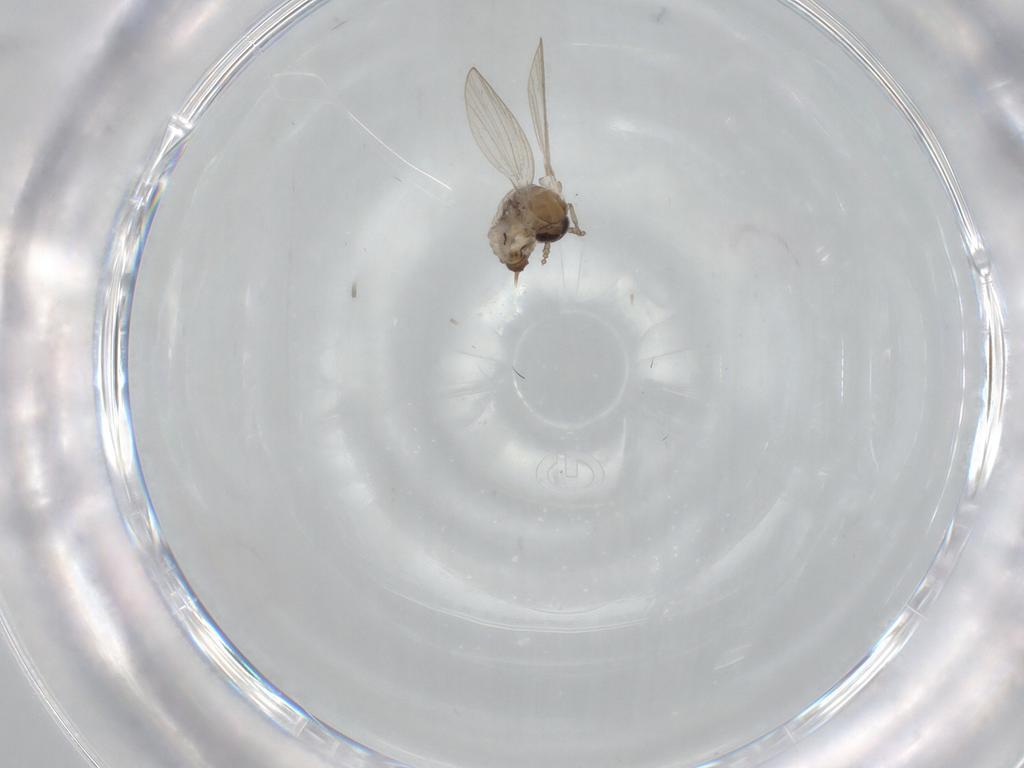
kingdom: Animalia
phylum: Arthropoda
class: Insecta
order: Diptera
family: Psychodidae
